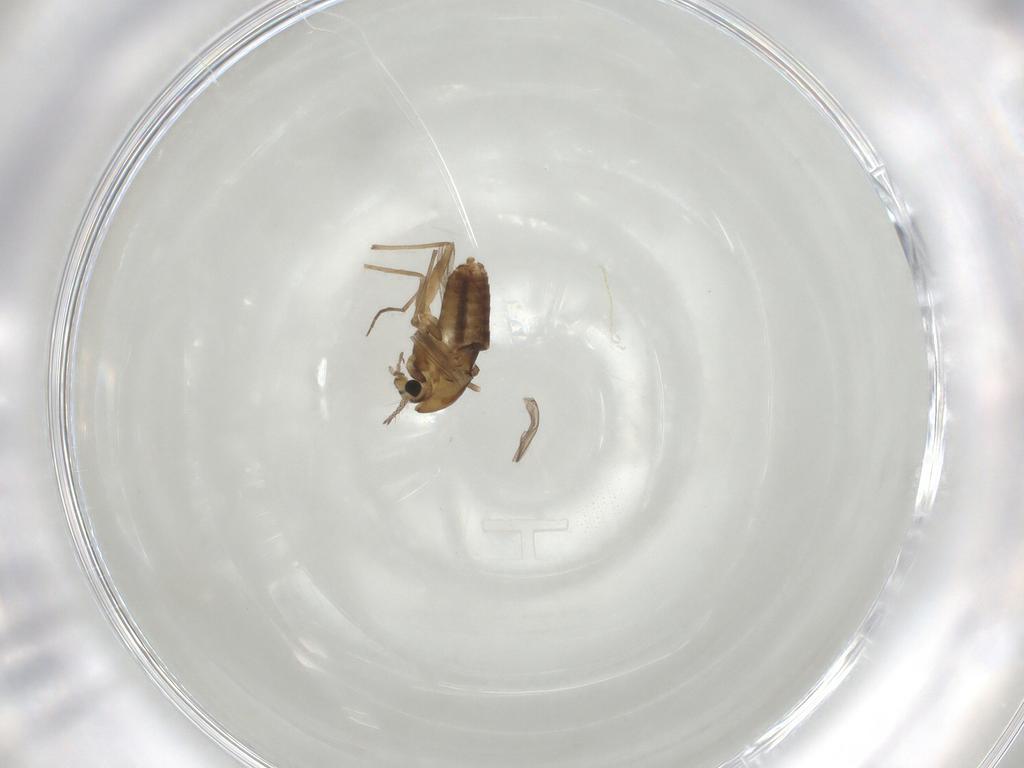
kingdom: Animalia
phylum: Arthropoda
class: Insecta
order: Diptera
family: Chironomidae
